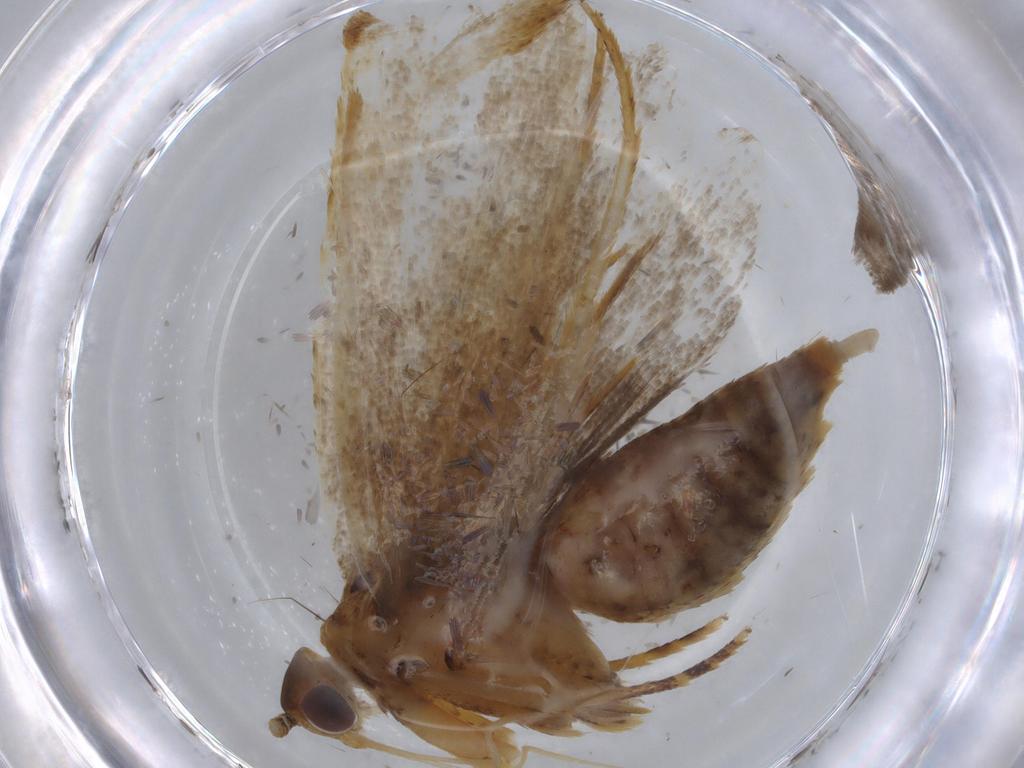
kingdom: Animalia
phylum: Arthropoda
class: Insecta
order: Lepidoptera
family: Lecithoceridae
